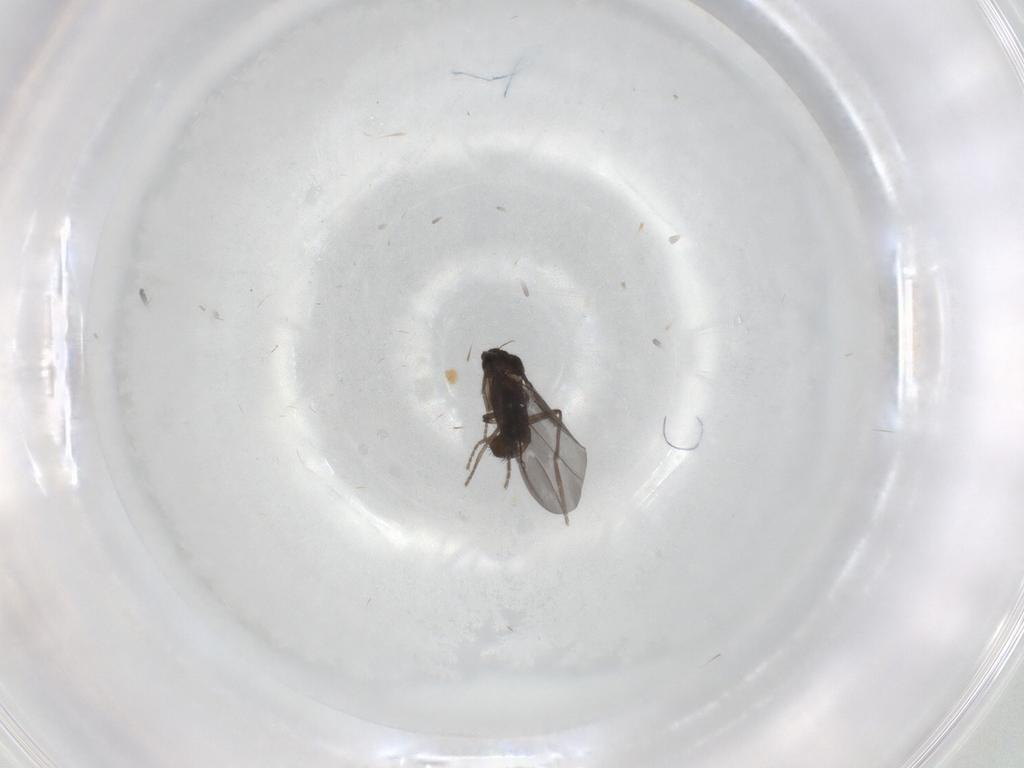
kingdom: Animalia
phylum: Arthropoda
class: Insecta
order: Diptera
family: Phoridae
